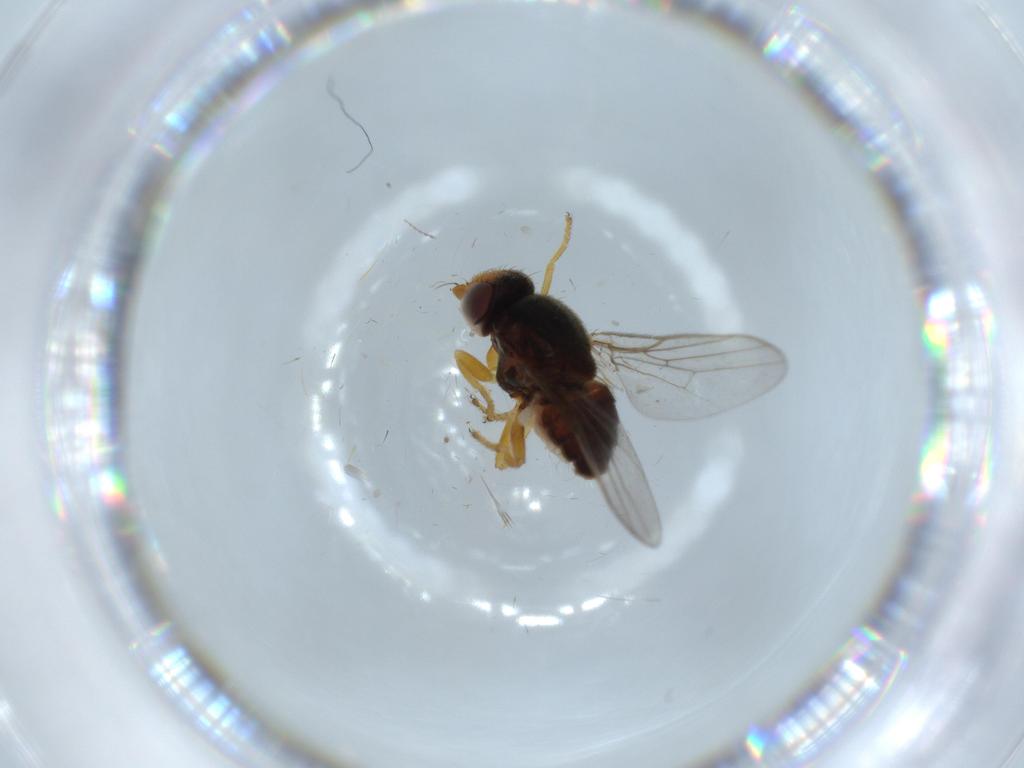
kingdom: Animalia
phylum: Arthropoda
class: Insecta
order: Diptera
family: Chloropidae
